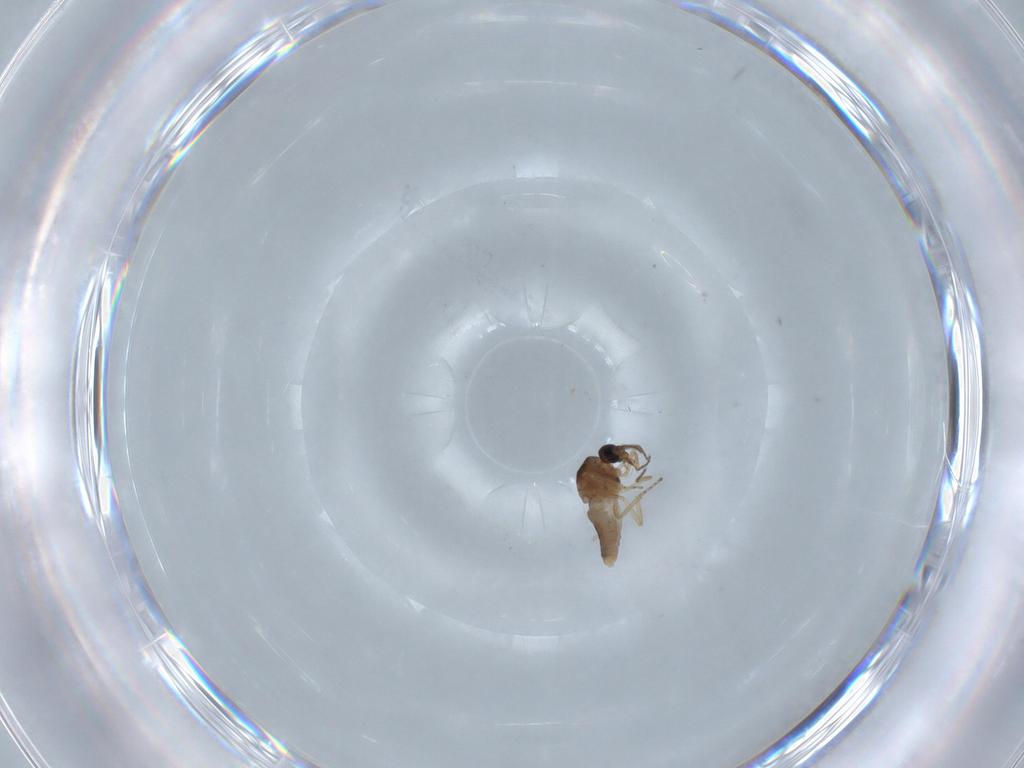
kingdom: Animalia
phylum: Arthropoda
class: Insecta
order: Diptera
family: Ceratopogonidae
